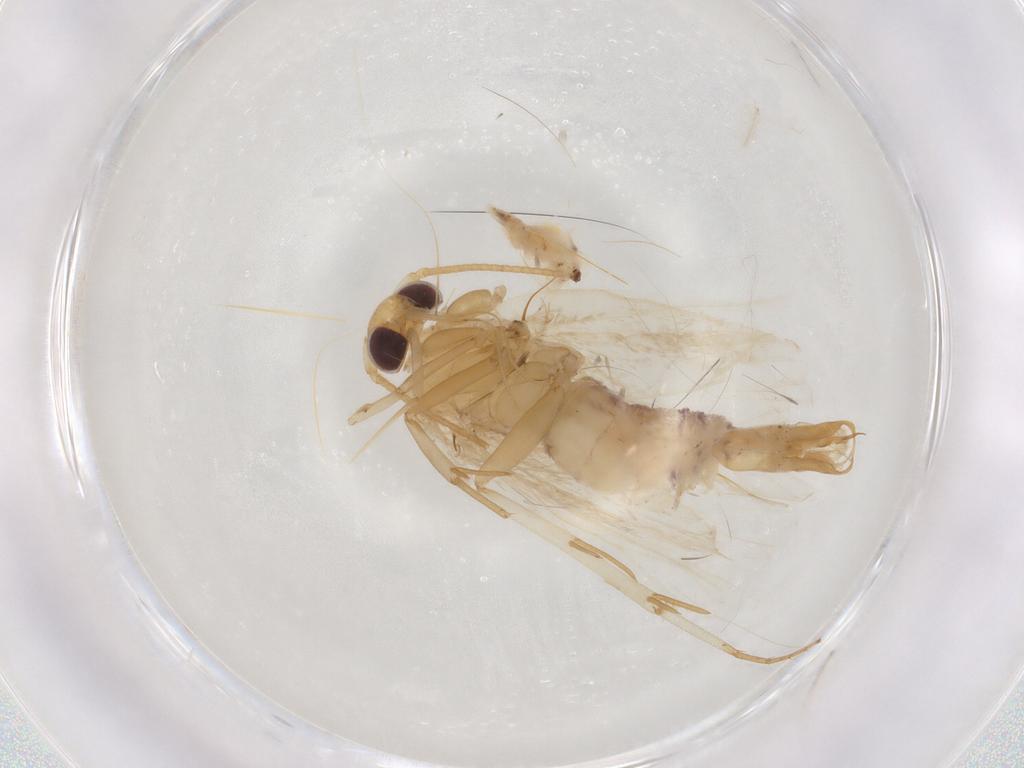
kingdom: Animalia
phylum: Arthropoda
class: Insecta
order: Lepidoptera
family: Depressariidae
